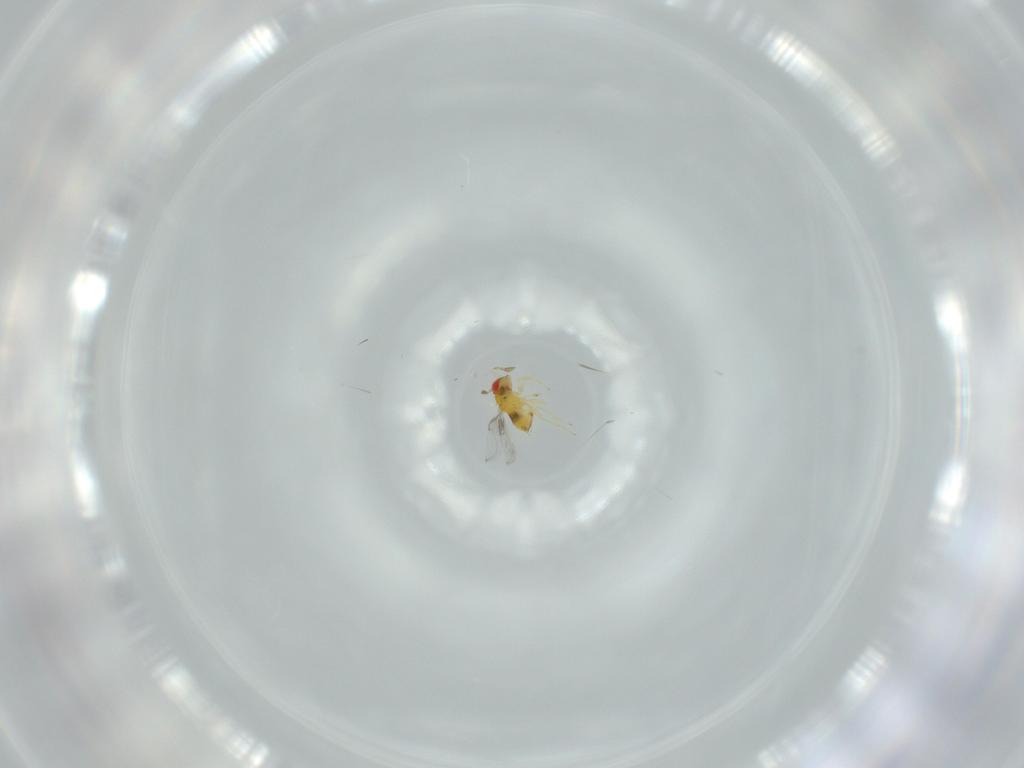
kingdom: Animalia
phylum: Arthropoda
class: Insecta
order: Hymenoptera
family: Trichogrammatidae
